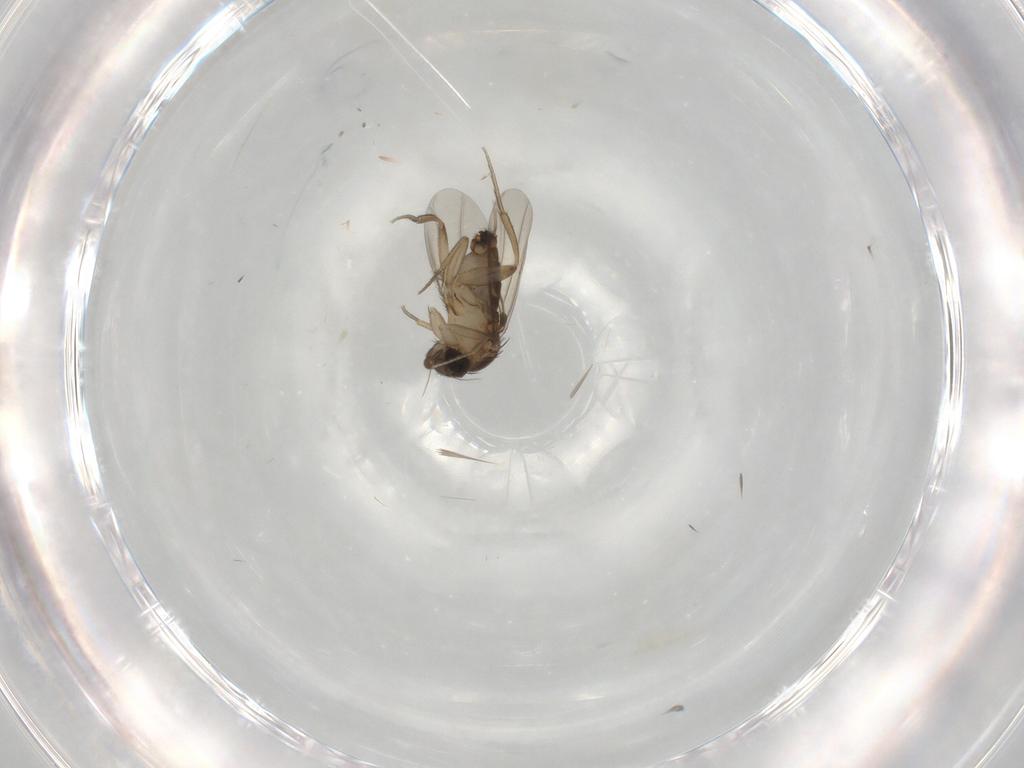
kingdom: Animalia
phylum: Arthropoda
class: Insecta
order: Diptera
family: Phoridae
